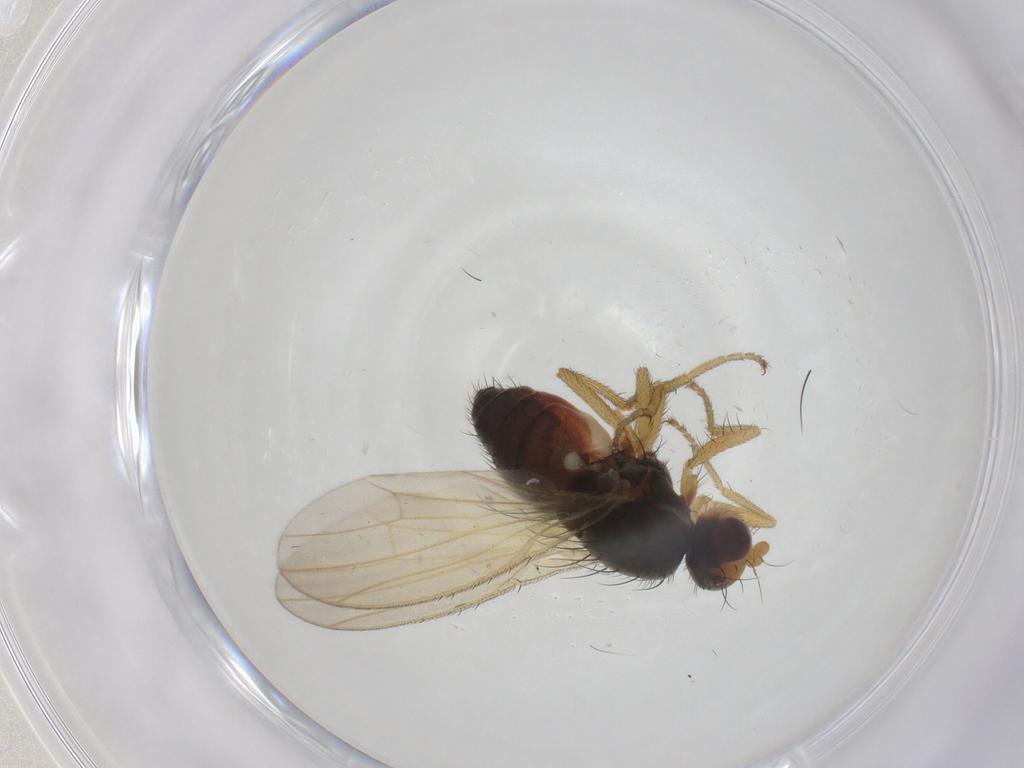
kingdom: Animalia
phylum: Arthropoda
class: Insecta
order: Diptera
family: Heleomyzidae
